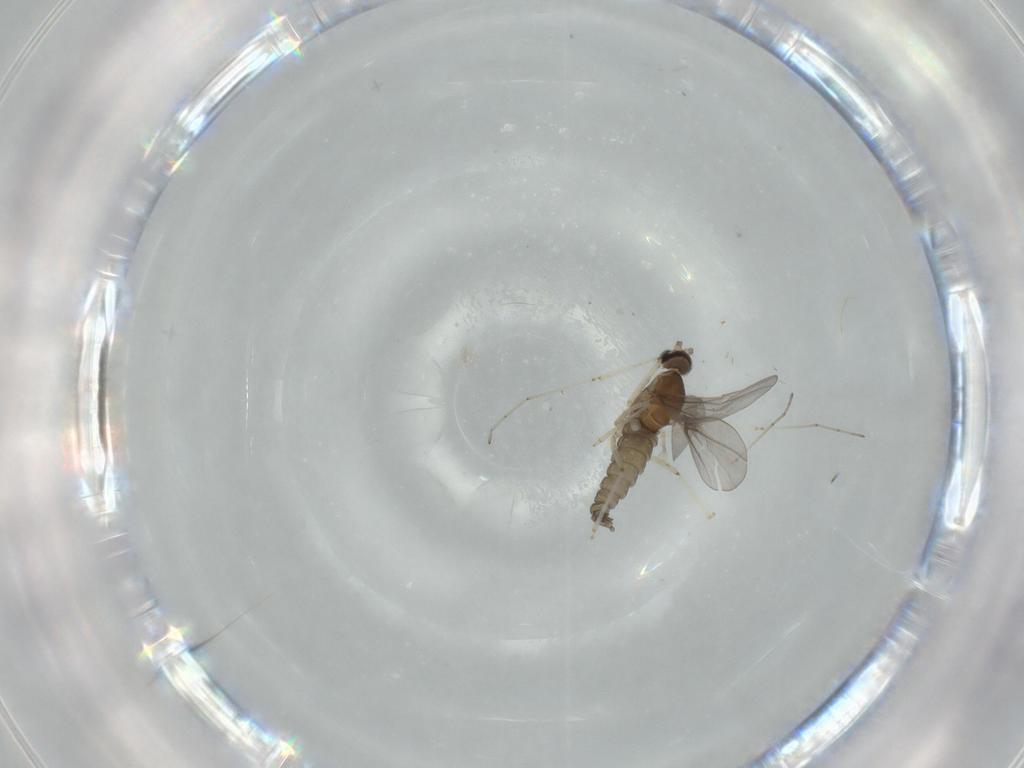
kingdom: Animalia
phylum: Arthropoda
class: Insecta
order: Diptera
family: Cecidomyiidae
